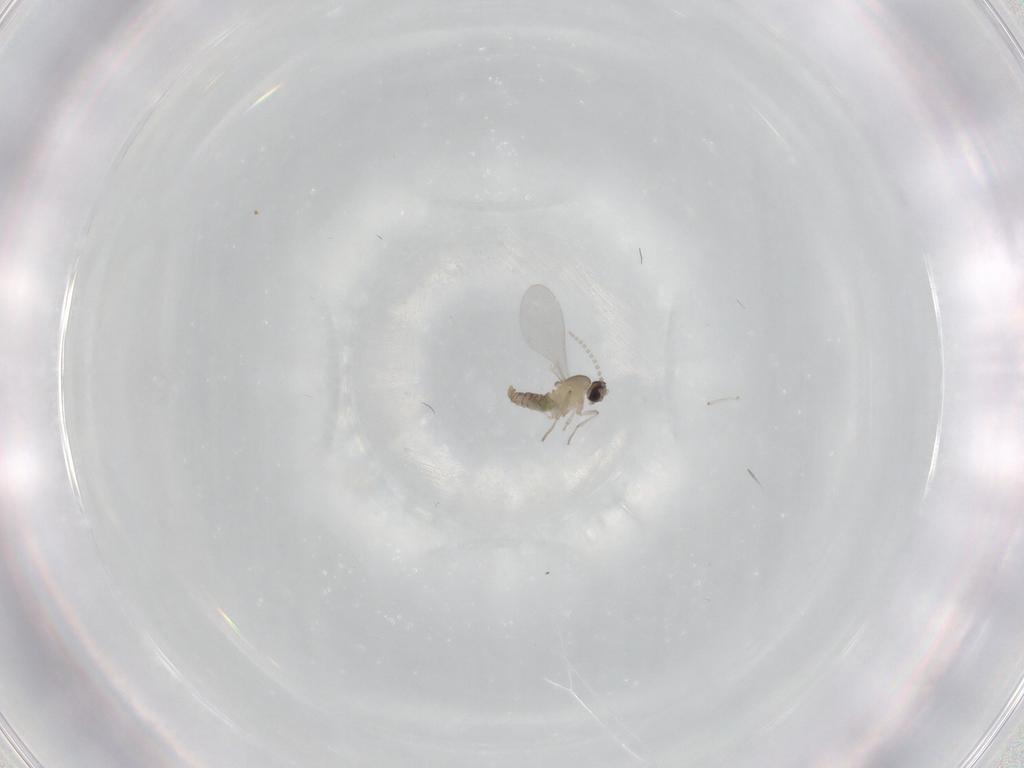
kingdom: Animalia
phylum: Arthropoda
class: Insecta
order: Diptera
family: Cecidomyiidae
